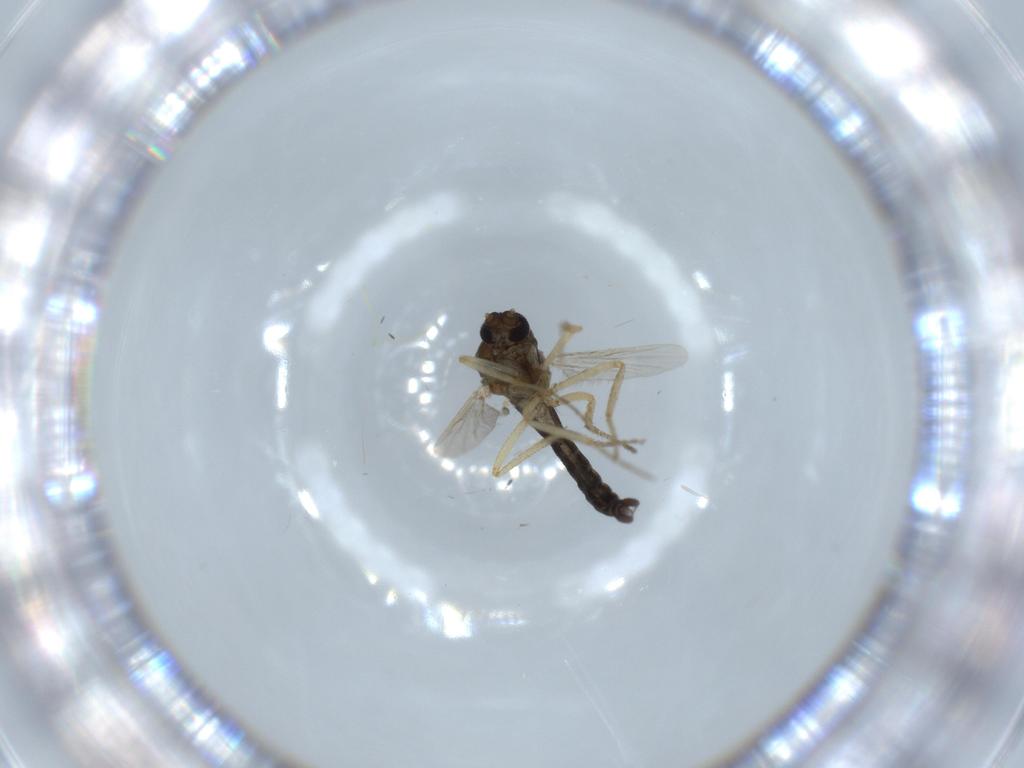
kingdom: Animalia
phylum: Arthropoda
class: Insecta
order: Diptera
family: Ceratopogonidae
